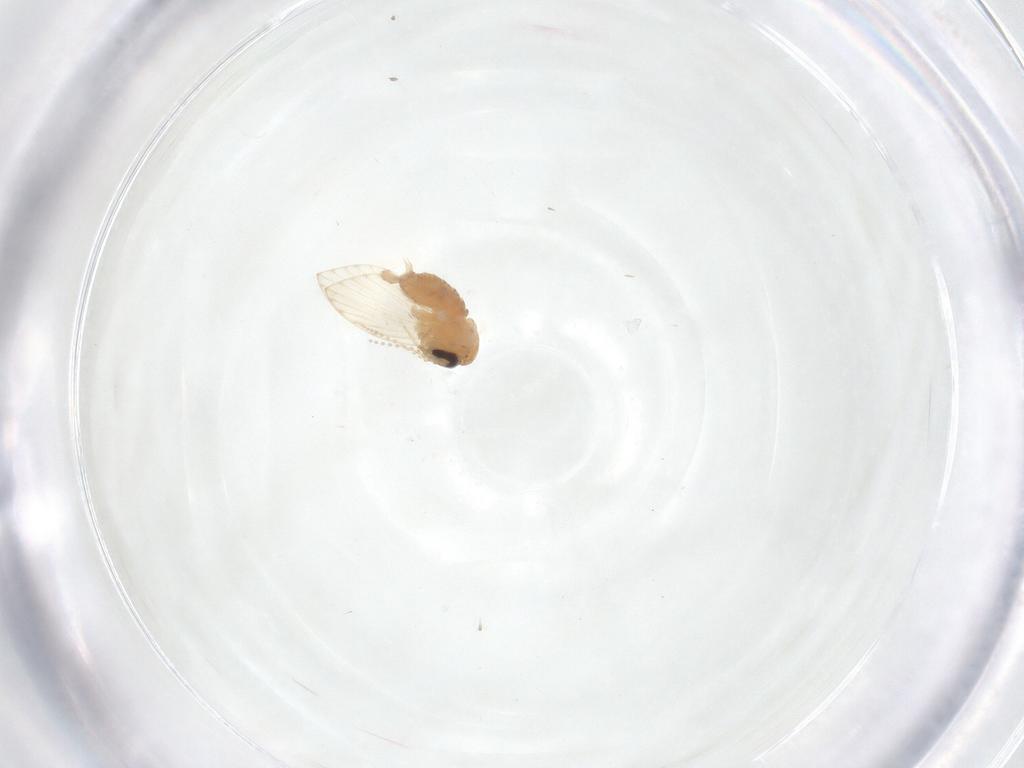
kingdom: Animalia
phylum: Arthropoda
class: Insecta
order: Diptera
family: Psychodidae
